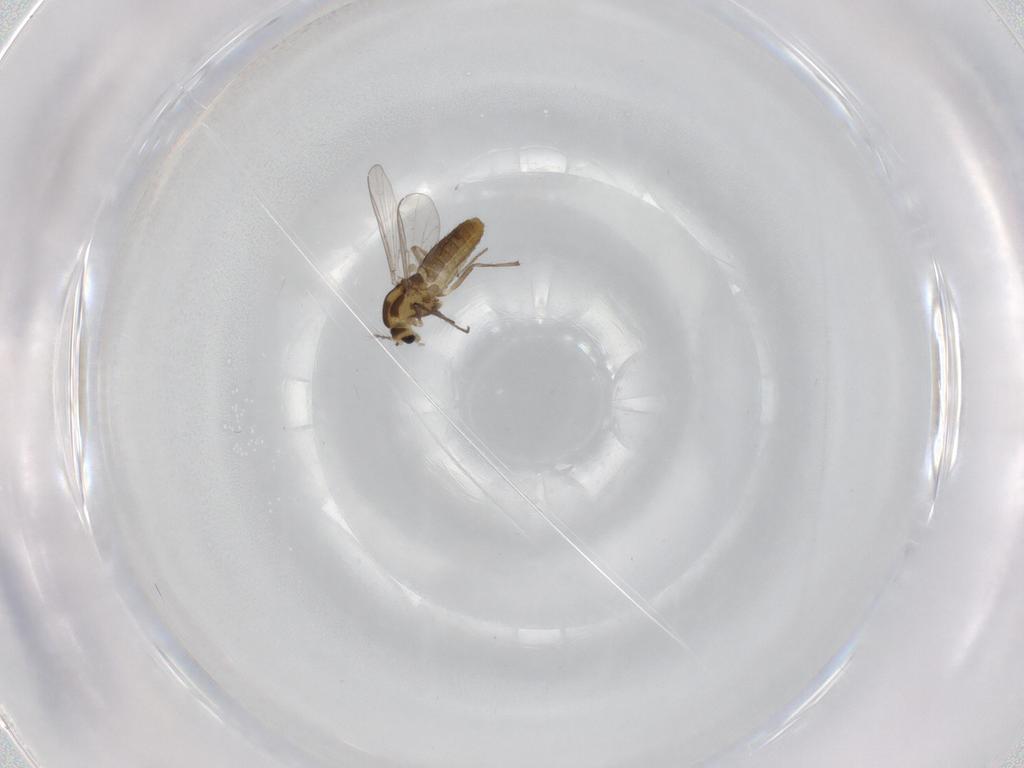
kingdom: Animalia
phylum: Arthropoda
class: Insecta
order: Diptera
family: Chironomidae
